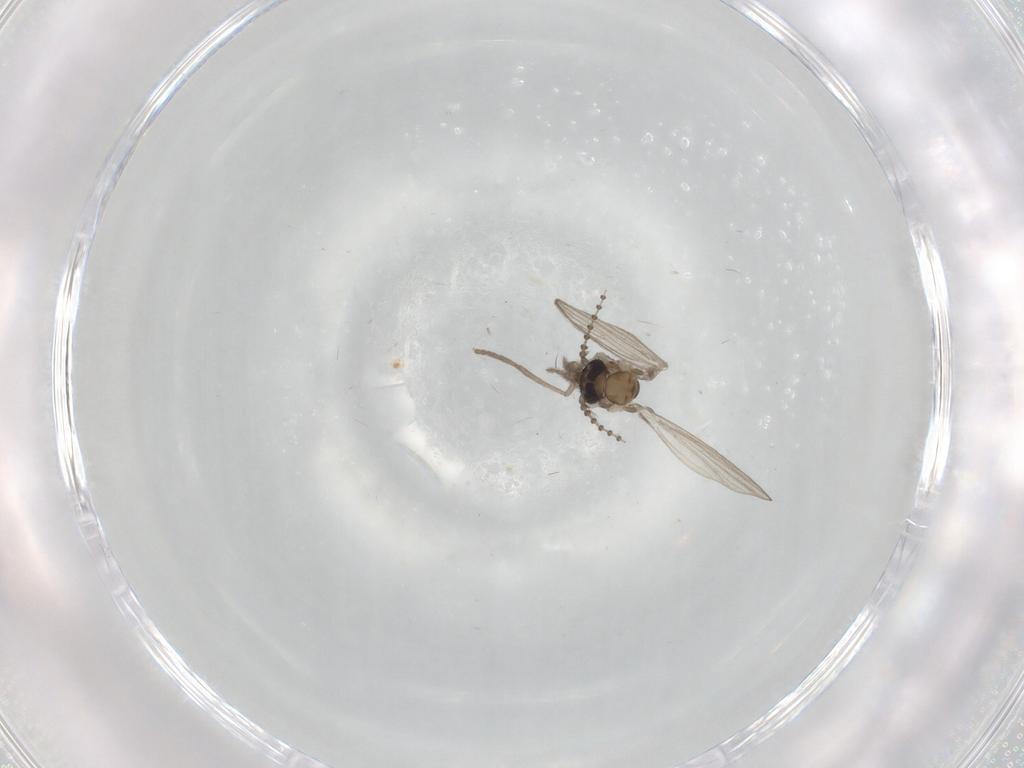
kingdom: Animalia
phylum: Arthropoda
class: Insecta
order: Diptera
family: Psychodidae
